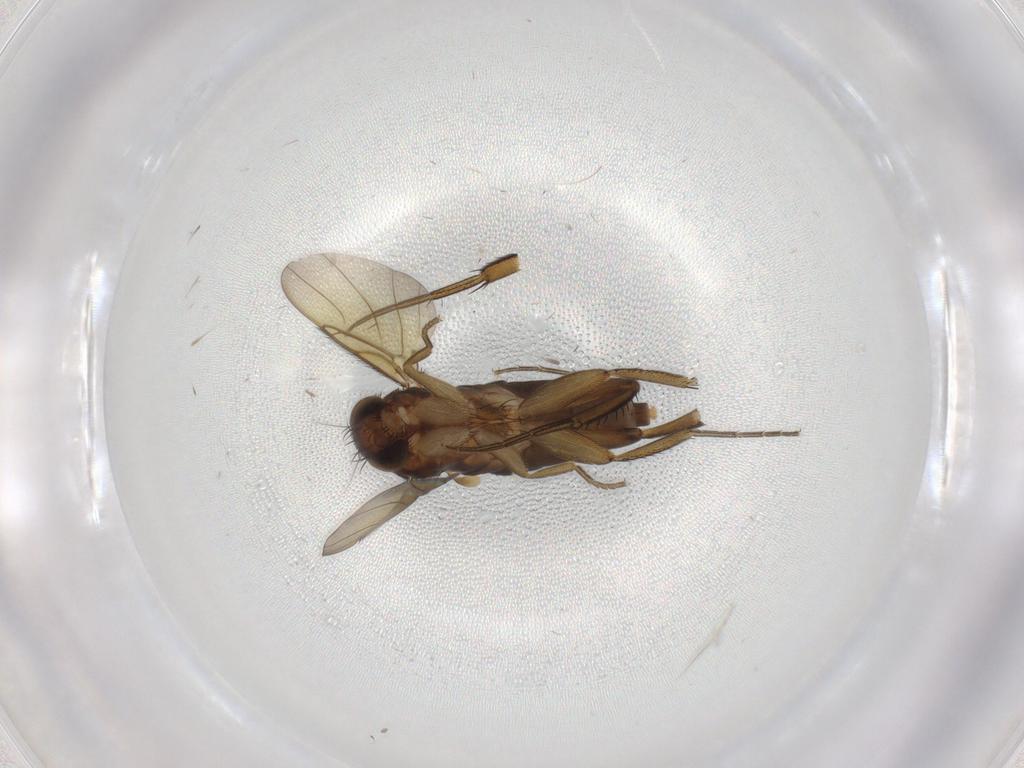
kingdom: Animalia
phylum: Arthropoda
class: Insecta
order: Diptera
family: Phoridae
